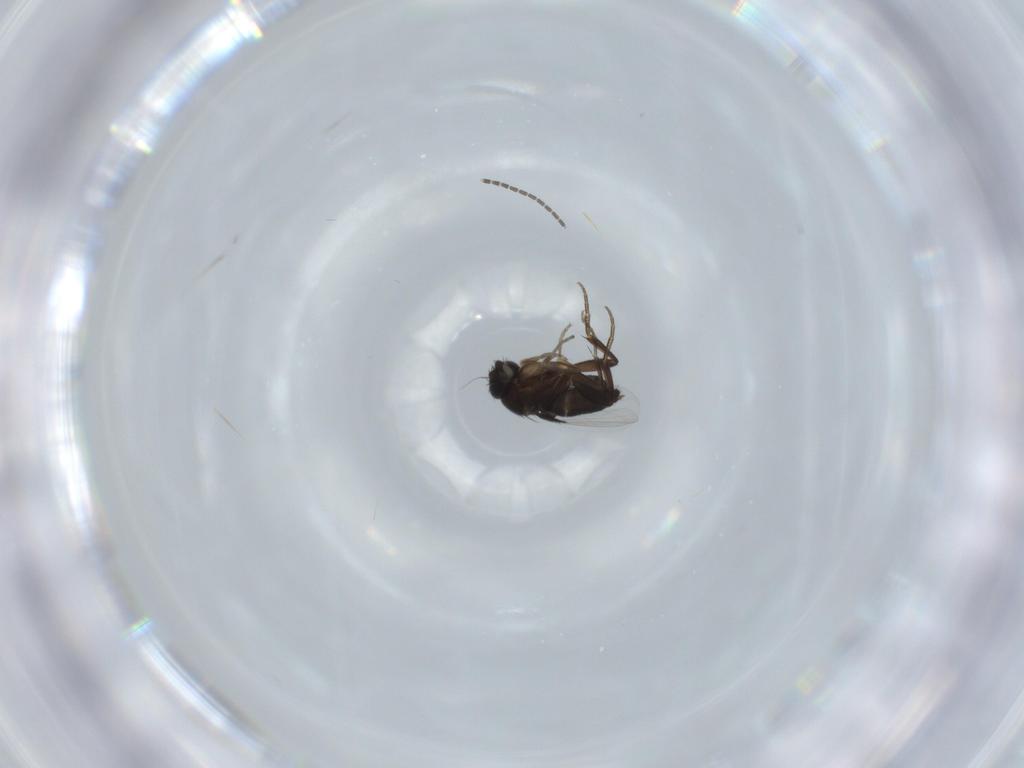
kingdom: Animalia
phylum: Arthropoda
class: Insecta
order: Diptera
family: Phoridae
